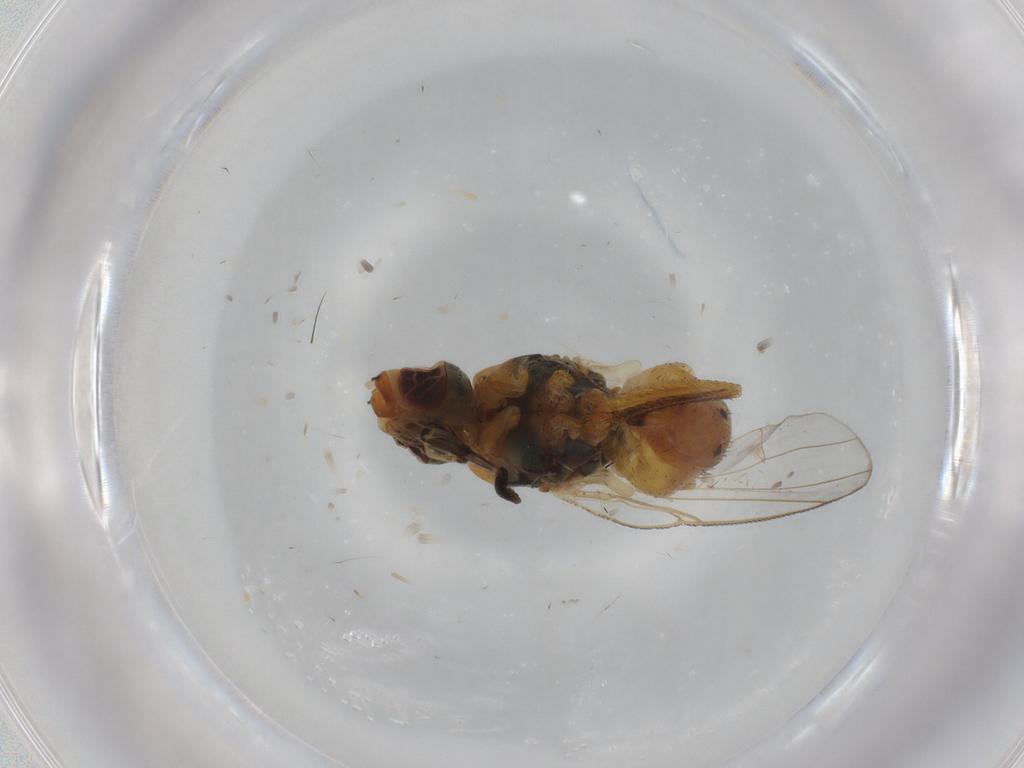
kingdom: Animalia
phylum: Arthropoda
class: Insecta
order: Diptera
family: Muscidae
